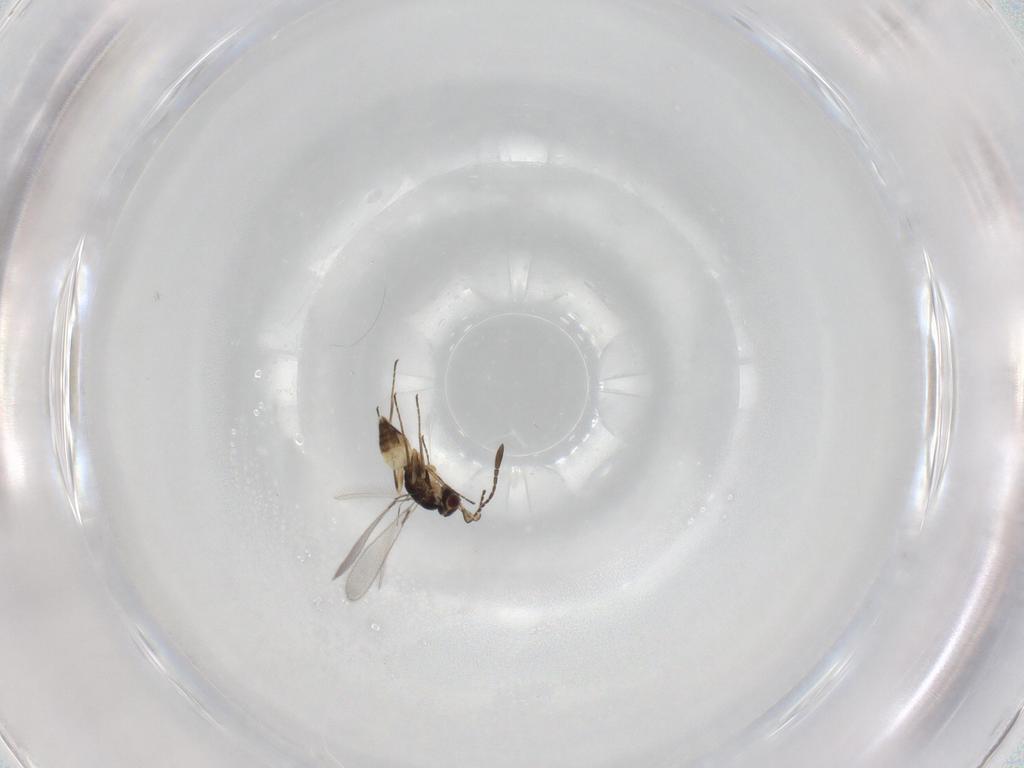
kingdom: Animalia
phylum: Arthropoda
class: Insecta
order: Hymenoptera
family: Mymaridae
